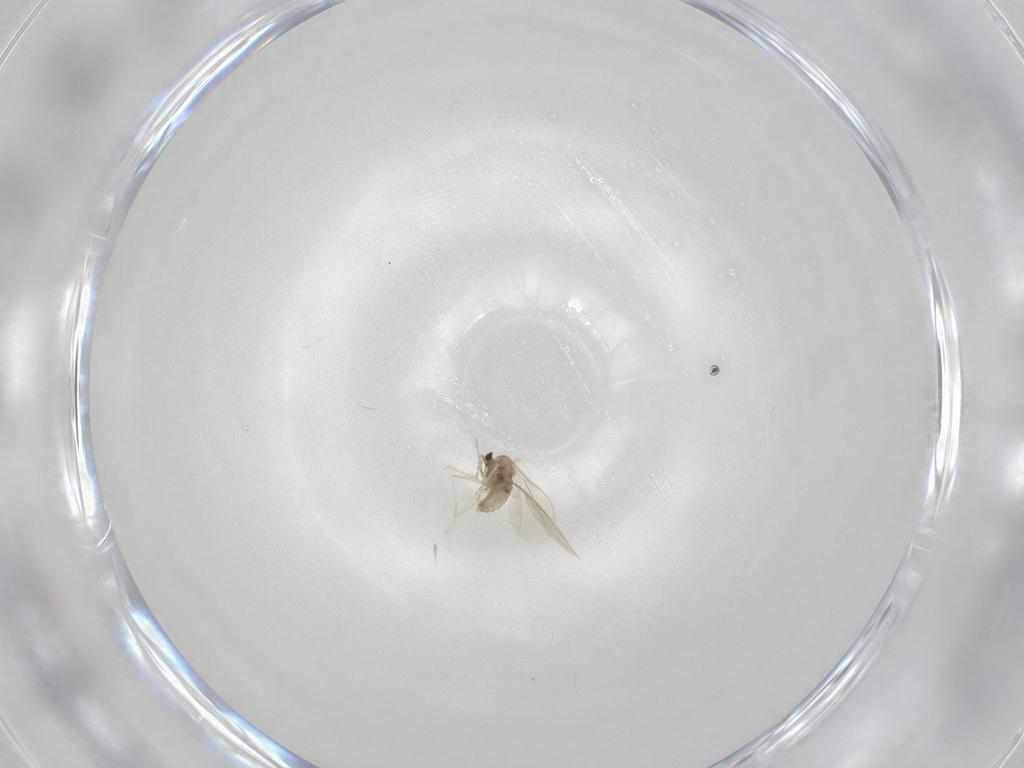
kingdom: Animalia
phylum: Arthropoda
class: Insecta
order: Diptera
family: Cecidomyiidae
